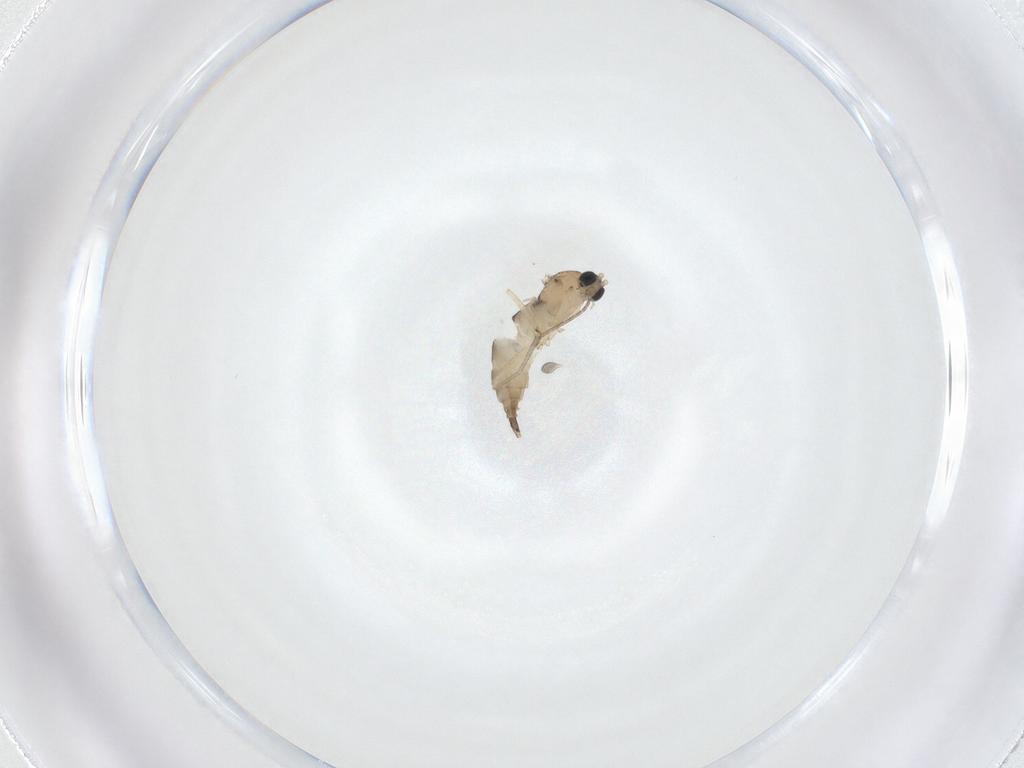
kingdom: Animalia
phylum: Arthropoda
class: Insecta
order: Diptera
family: Sciaridae
